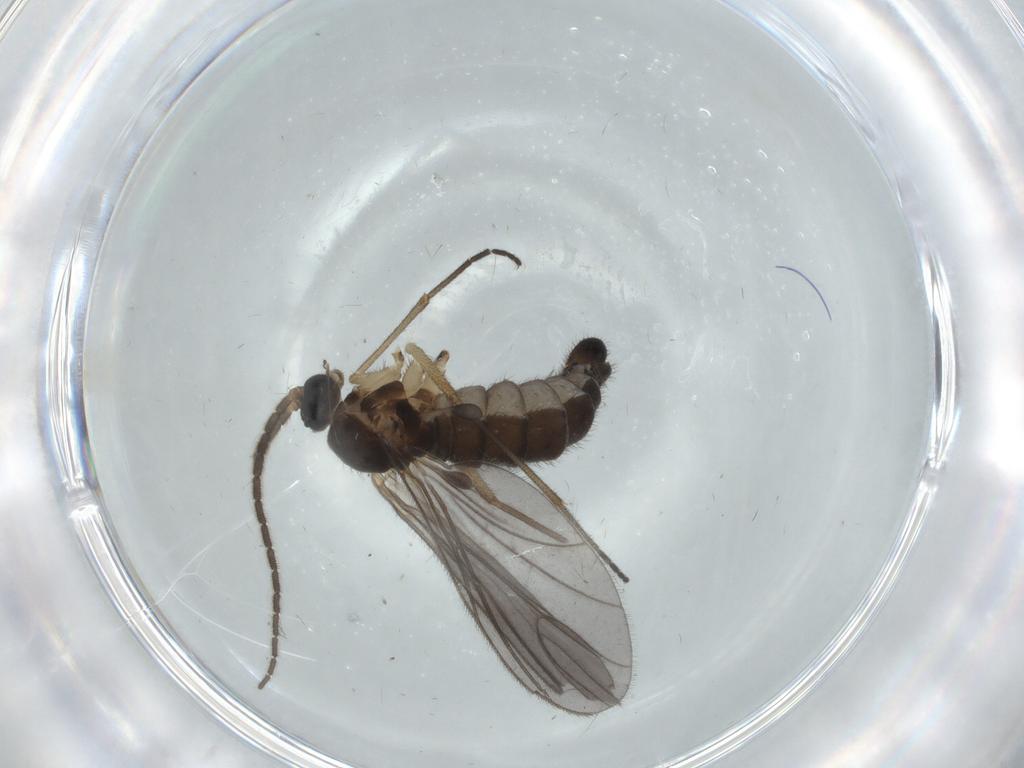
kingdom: Animalia
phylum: Arthropoda
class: Insecta
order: Diptera
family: Sciaridae
